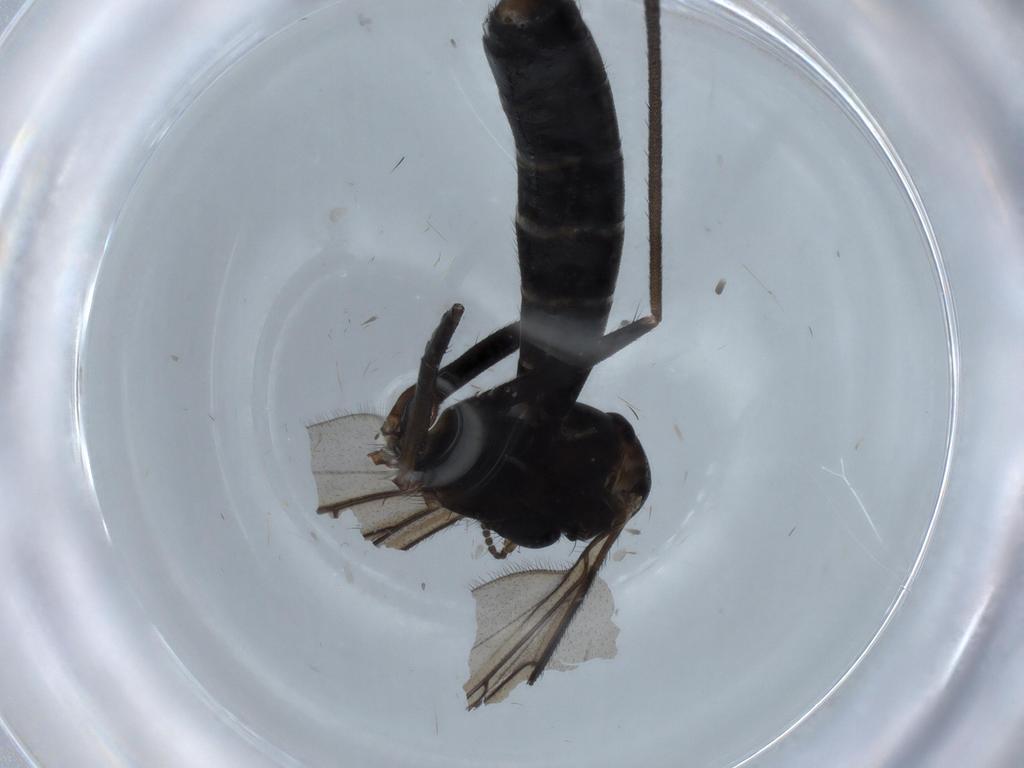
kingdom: Animalia
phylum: Arthropoda
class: Insecta
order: Diptera
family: Ditomyiidae
